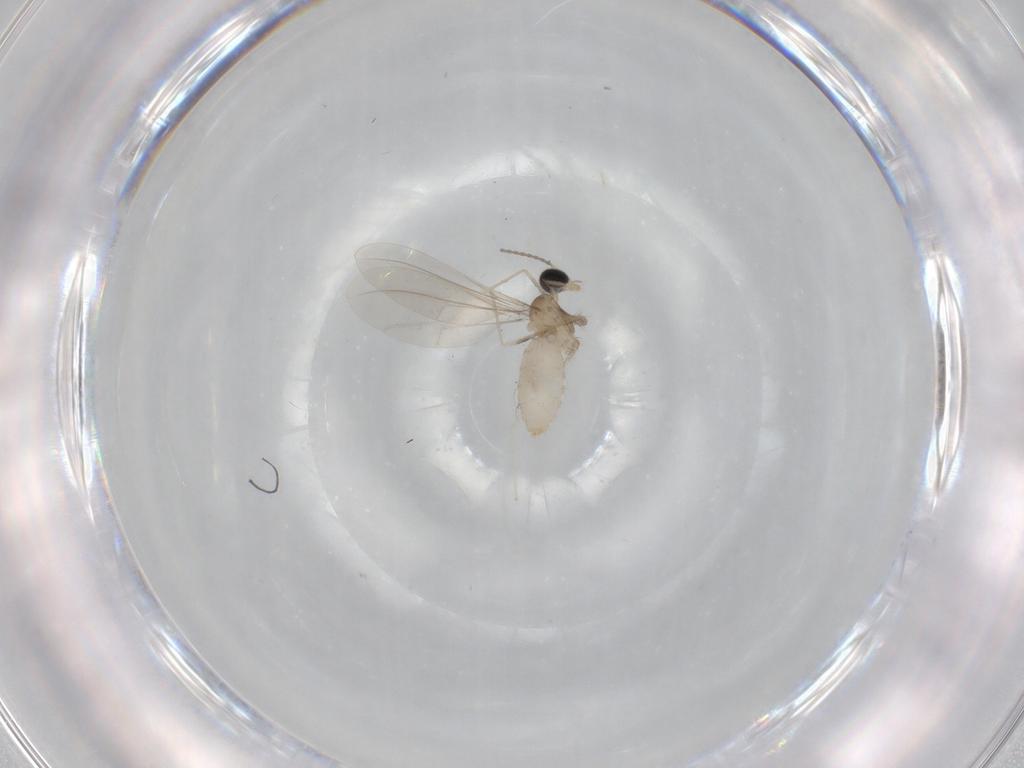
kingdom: Animalia
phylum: Arthropoda
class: Insecta
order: Diptera
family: Cecidomyiidae
